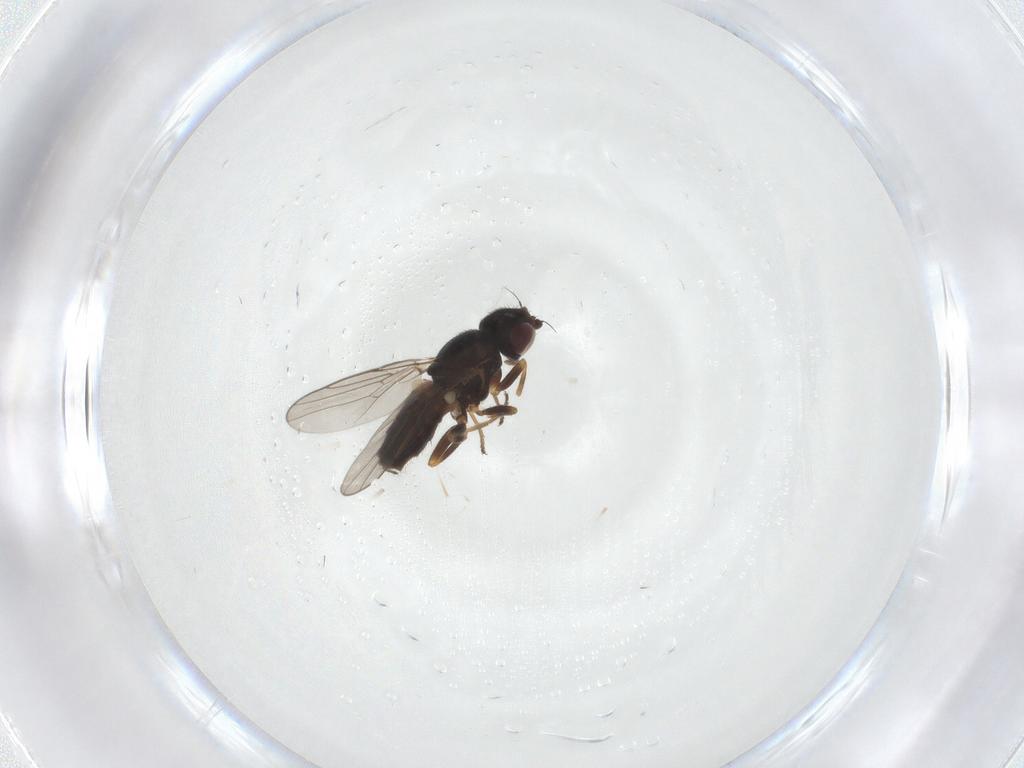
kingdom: Animalia
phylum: Arthropoda
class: Insecta
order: Diptera
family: Chloropidae
